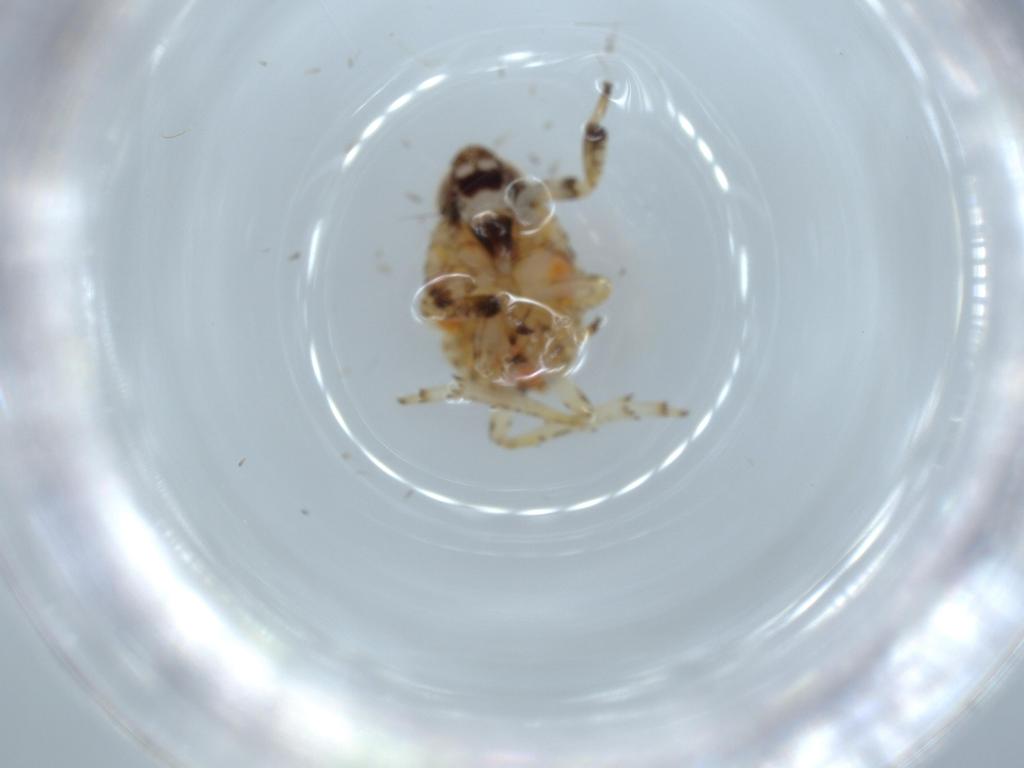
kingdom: Animalia
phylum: Arthropoda
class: Insecta
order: Hemiptera
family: Issidae
